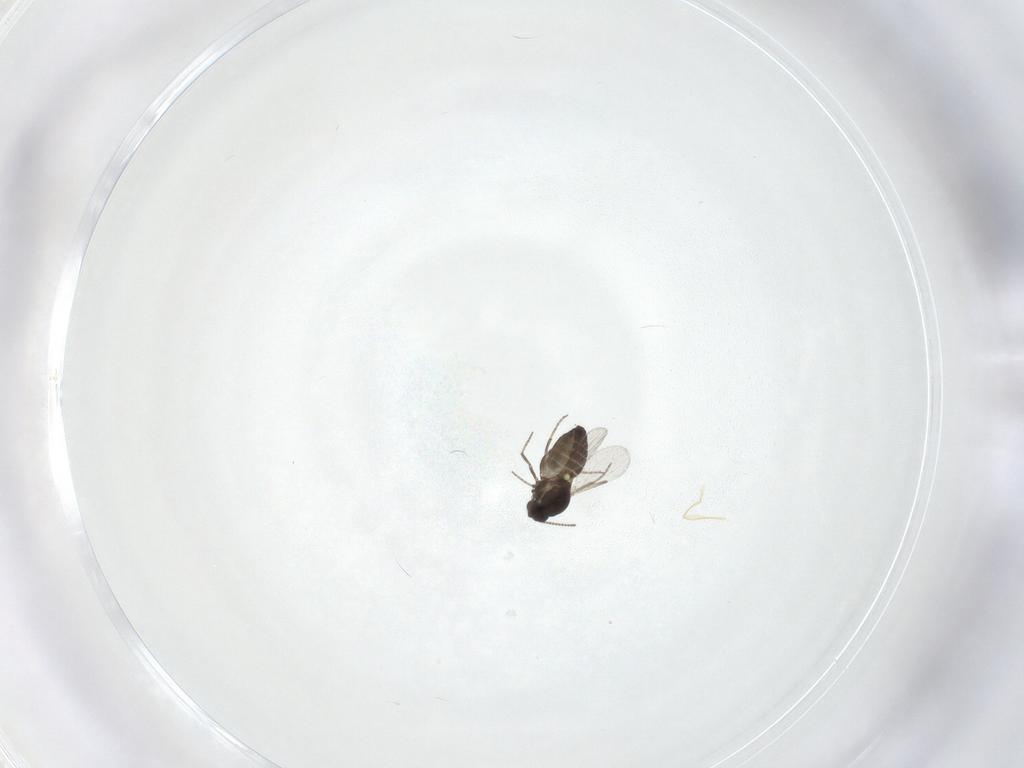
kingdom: Animalia
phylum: Arthropoda
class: Insecta
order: Diptera
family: Ceratopogonidae
